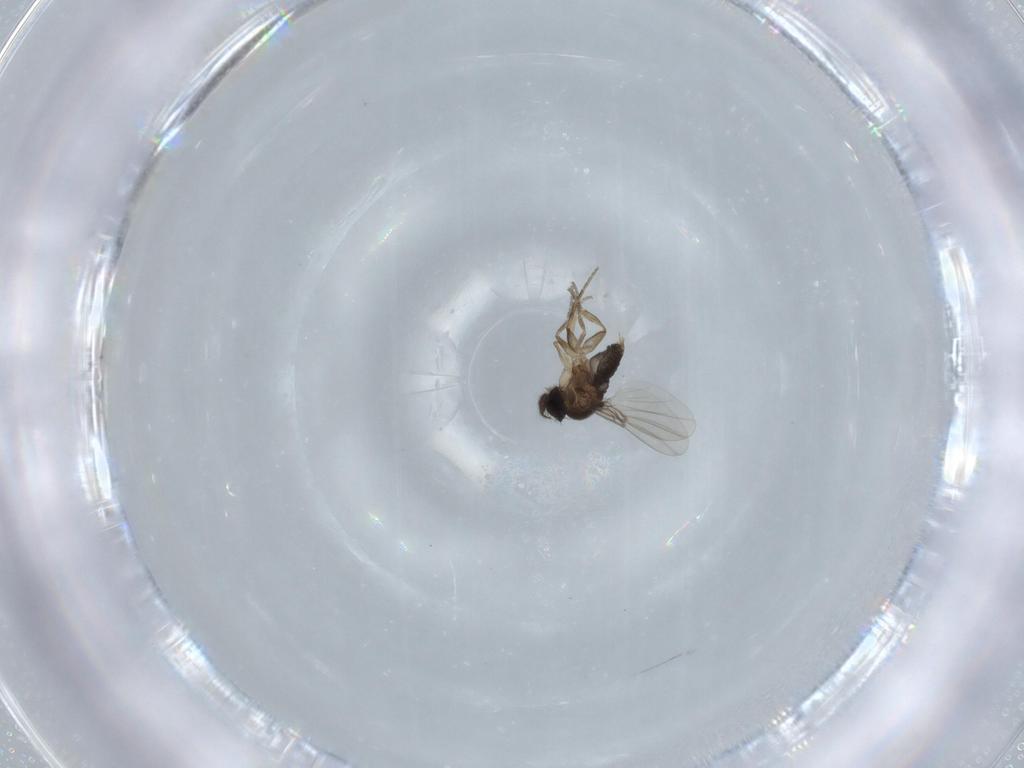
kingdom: Animalia
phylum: Arthropoda
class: Insecta
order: Diptera
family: Phoridae
